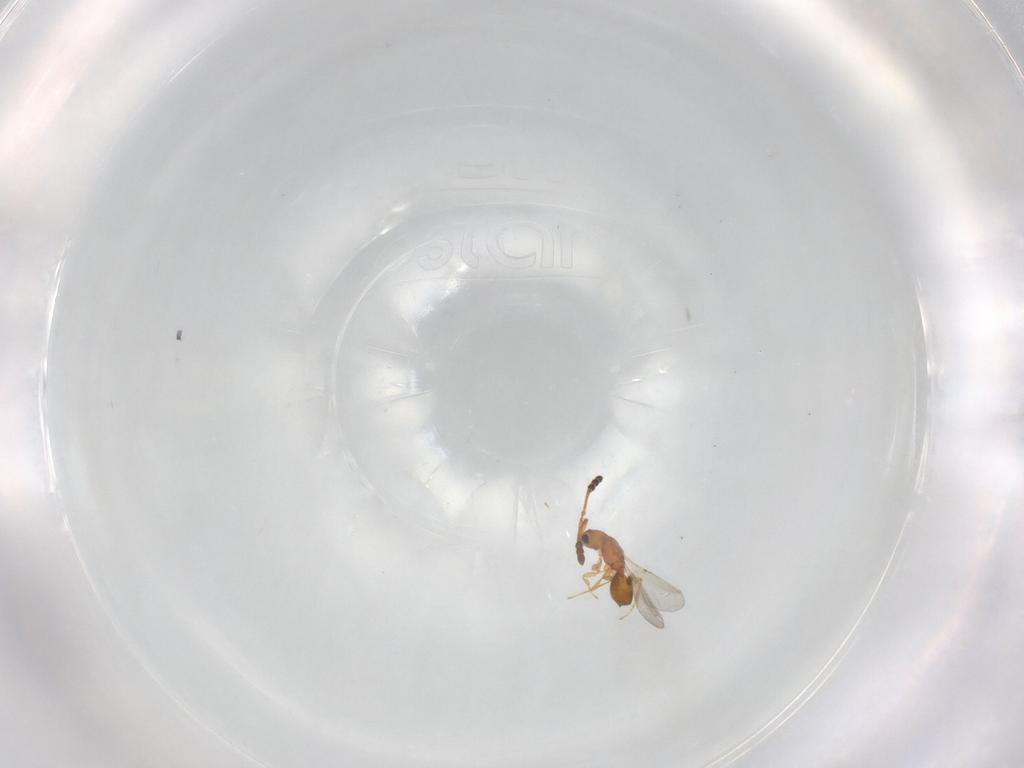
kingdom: Animalia
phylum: Arthropoda
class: Insecta
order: Hymenoptera
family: Diapriidae
